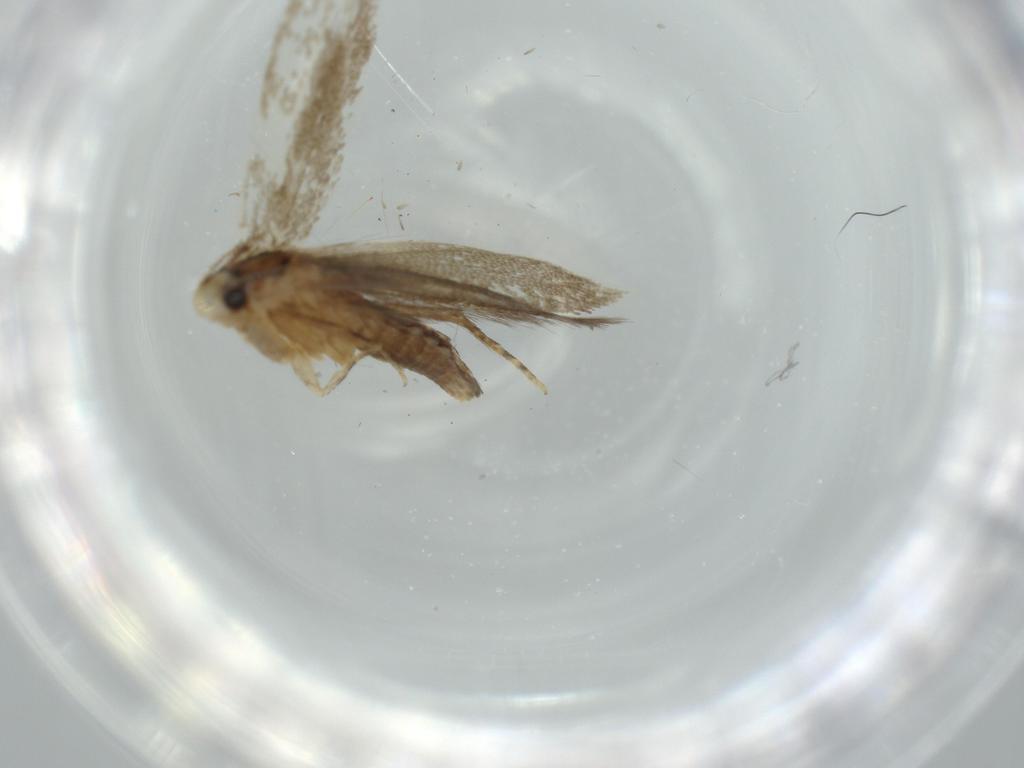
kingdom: Animalia
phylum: Arthropoda
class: Insecta
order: Lepidoptera
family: Tineidae
